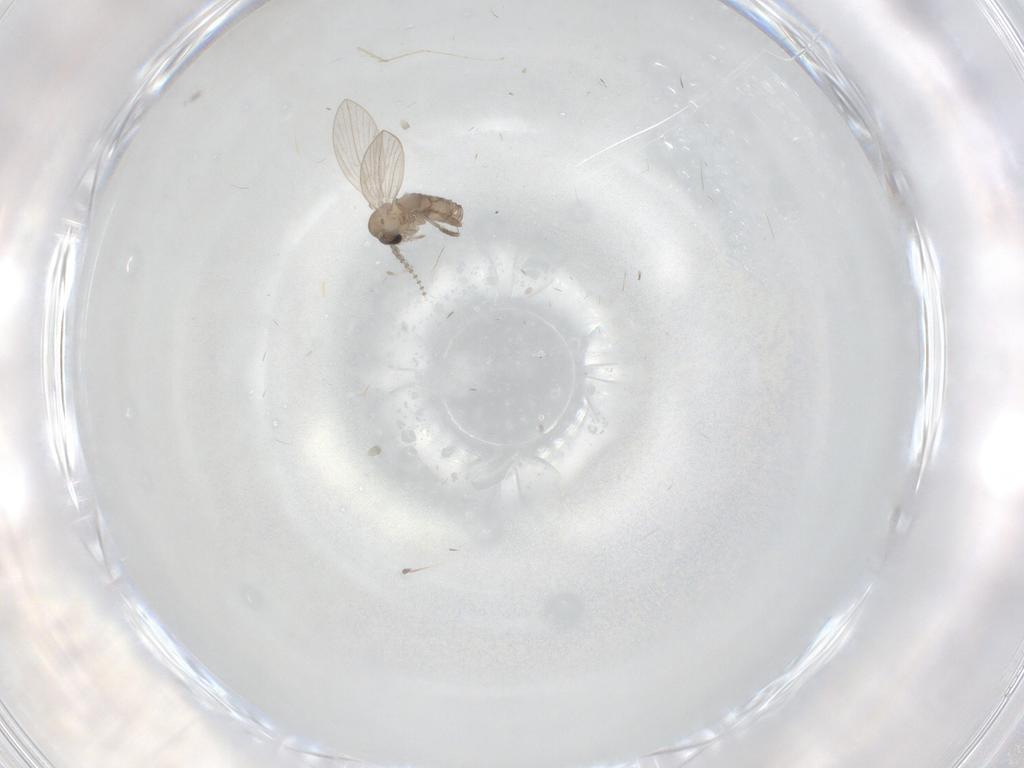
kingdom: Animalia
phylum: Arthropoda
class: Insecta
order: Diptera
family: Psychodidae
